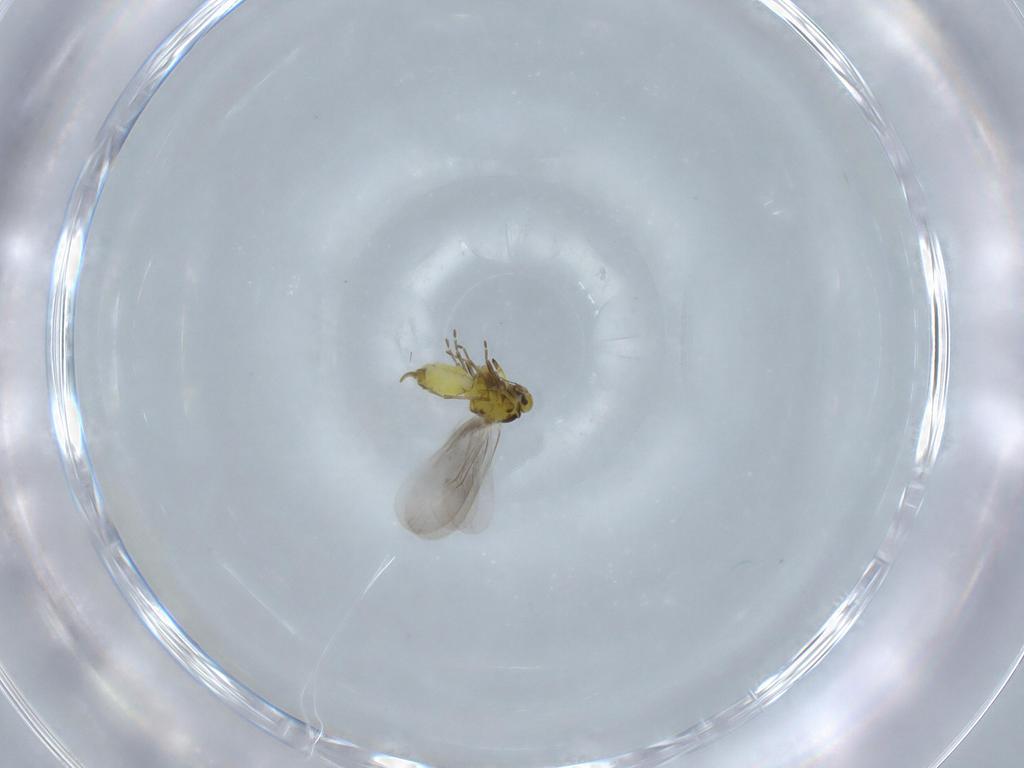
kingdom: Animalia
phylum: Arthropoda
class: Insecta
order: Hemiptera
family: Aleyrodidae
